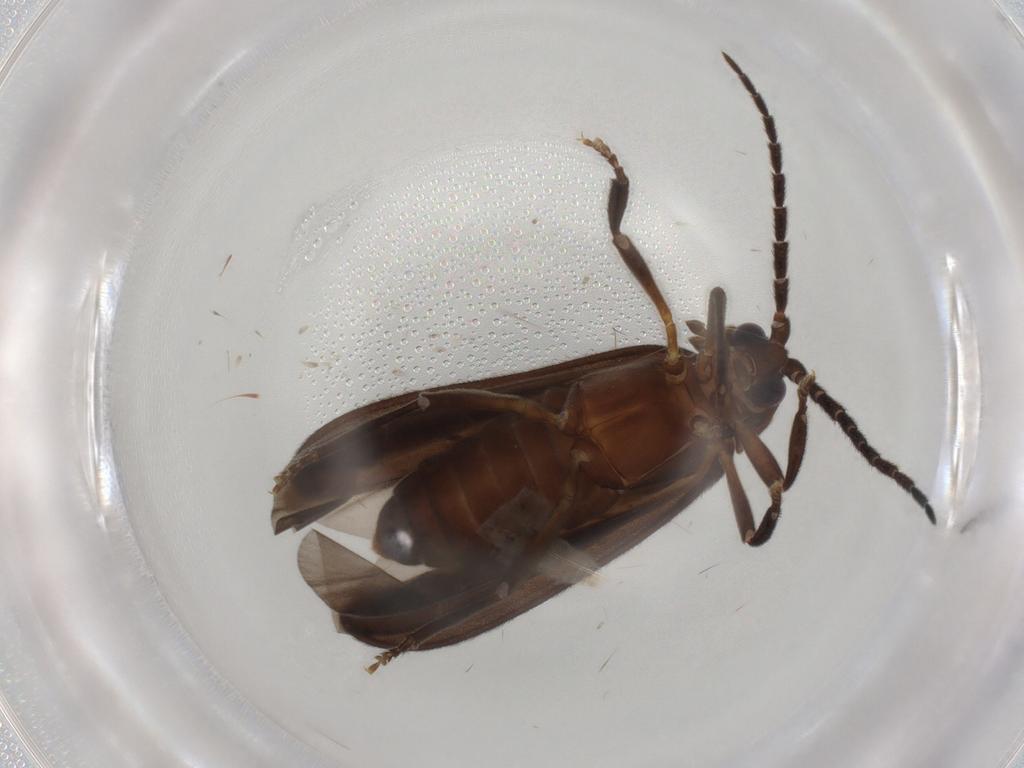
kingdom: Animalia
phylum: Arthropoda
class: Insecta
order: Coleoptera
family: Lycidae
